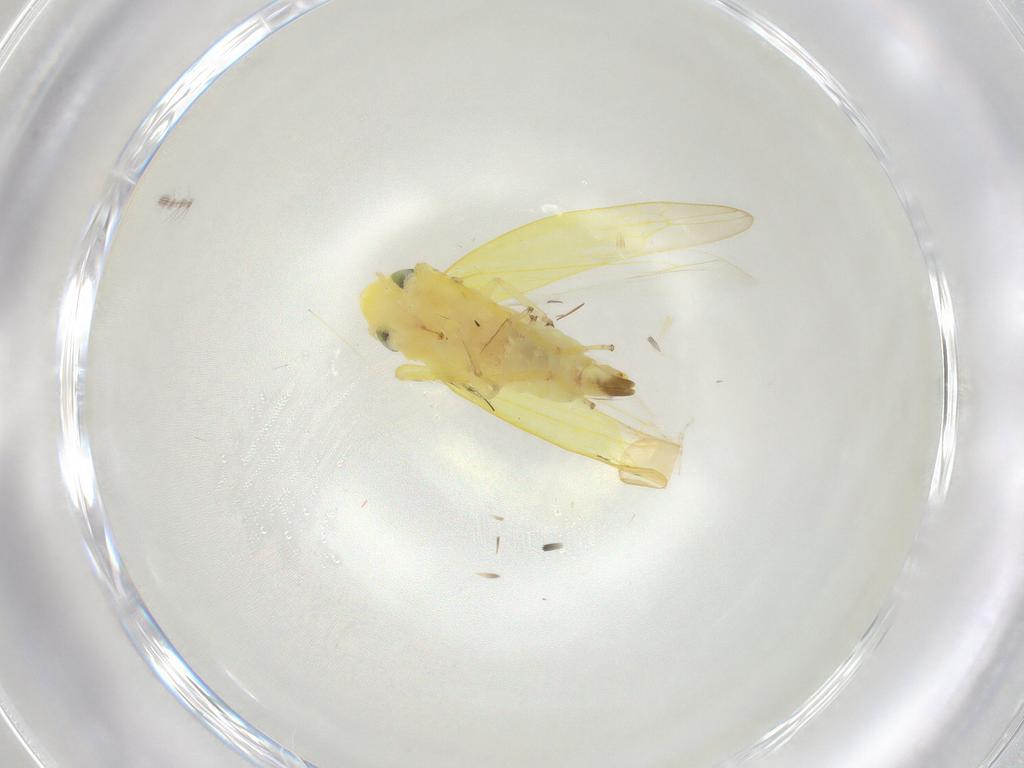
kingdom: Animalia
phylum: Arthropoda
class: Insecta
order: Hemiptera
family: Cicadellidae
